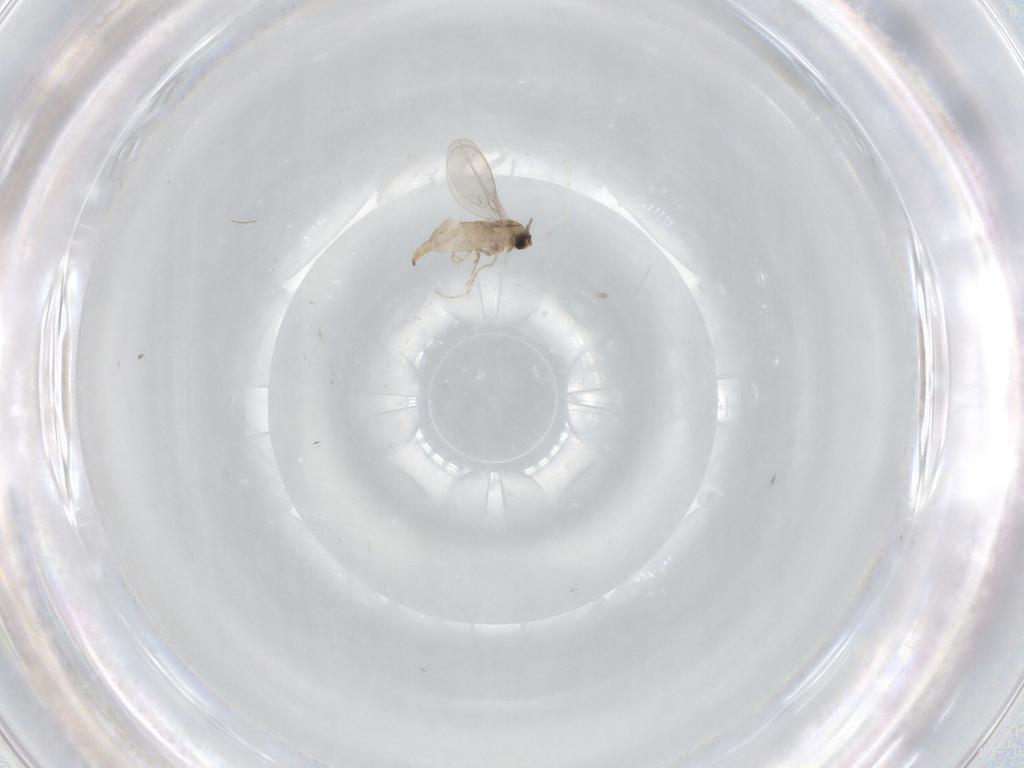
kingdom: Animalia
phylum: Arthropoda
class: Insecta
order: Diptera
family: Cecidomyiidae
